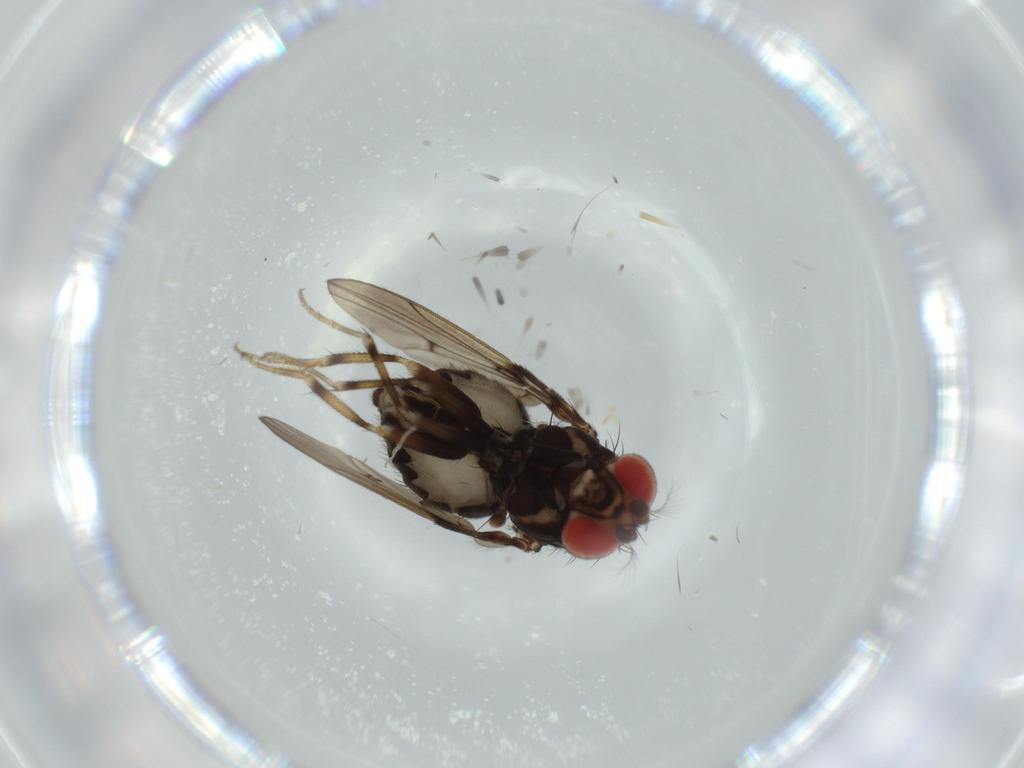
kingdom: Animalia
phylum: Arthropoda
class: Insecta
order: Diptera
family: Drosophilidae
